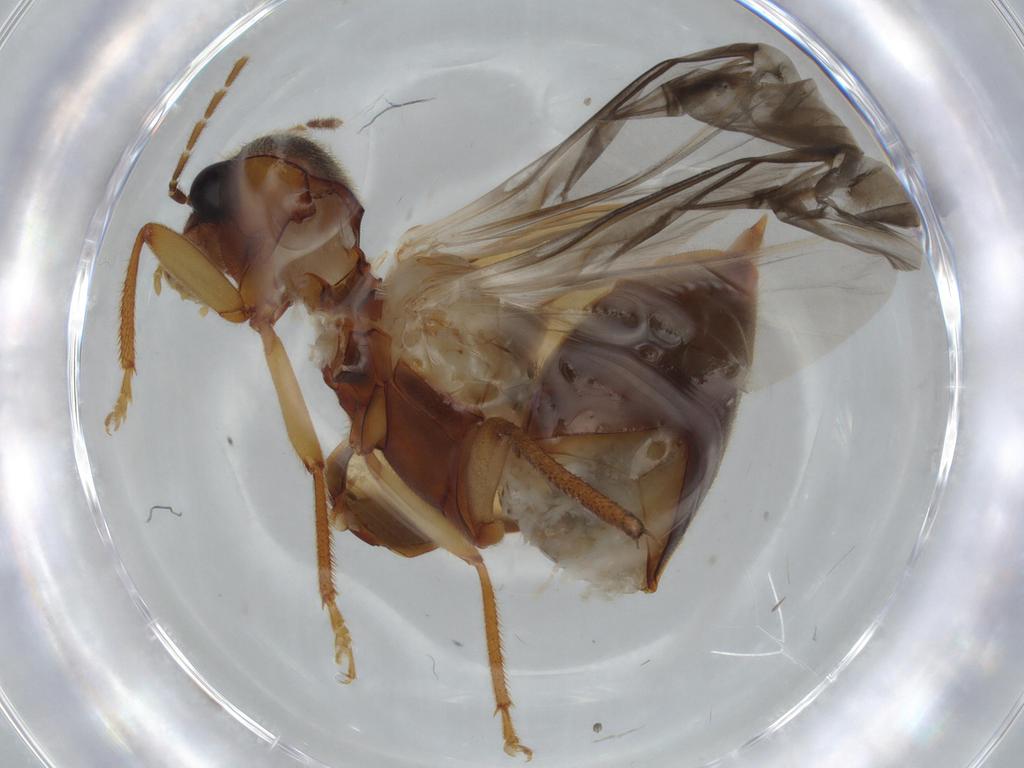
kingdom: Animalia
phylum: Arthropoda
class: Insecta
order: Coleoptera
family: Ptilodactylidae
